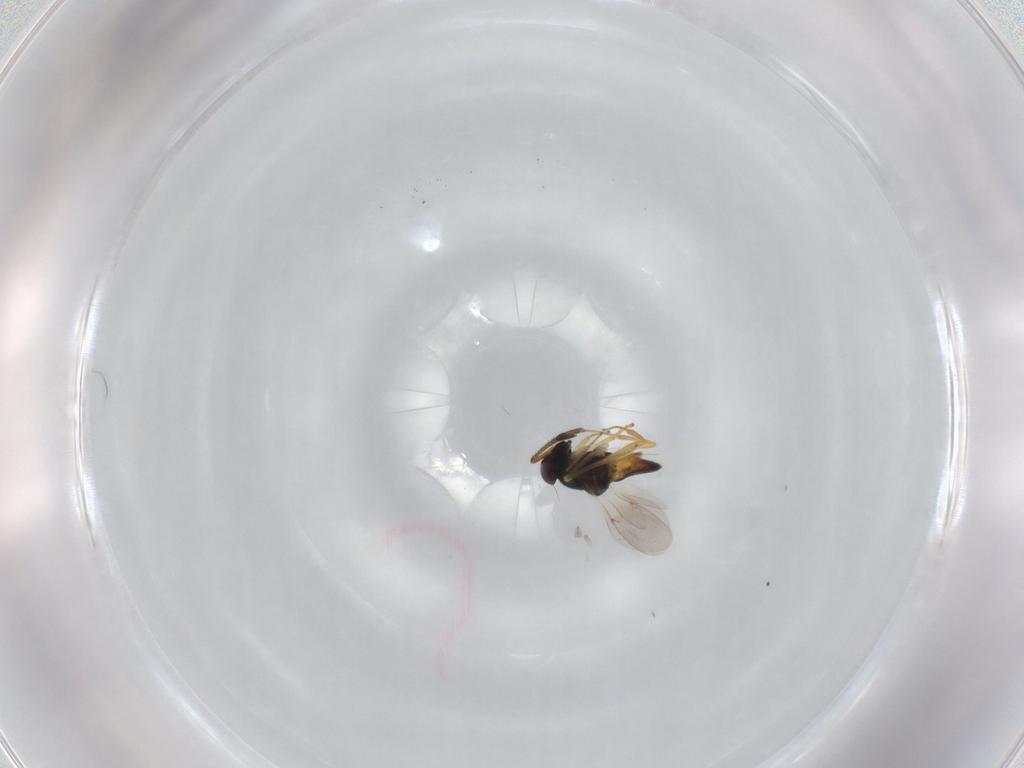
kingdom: Animalia
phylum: Arthropoda
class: Insecta
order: Hymenoptera
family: Encyrtidae
